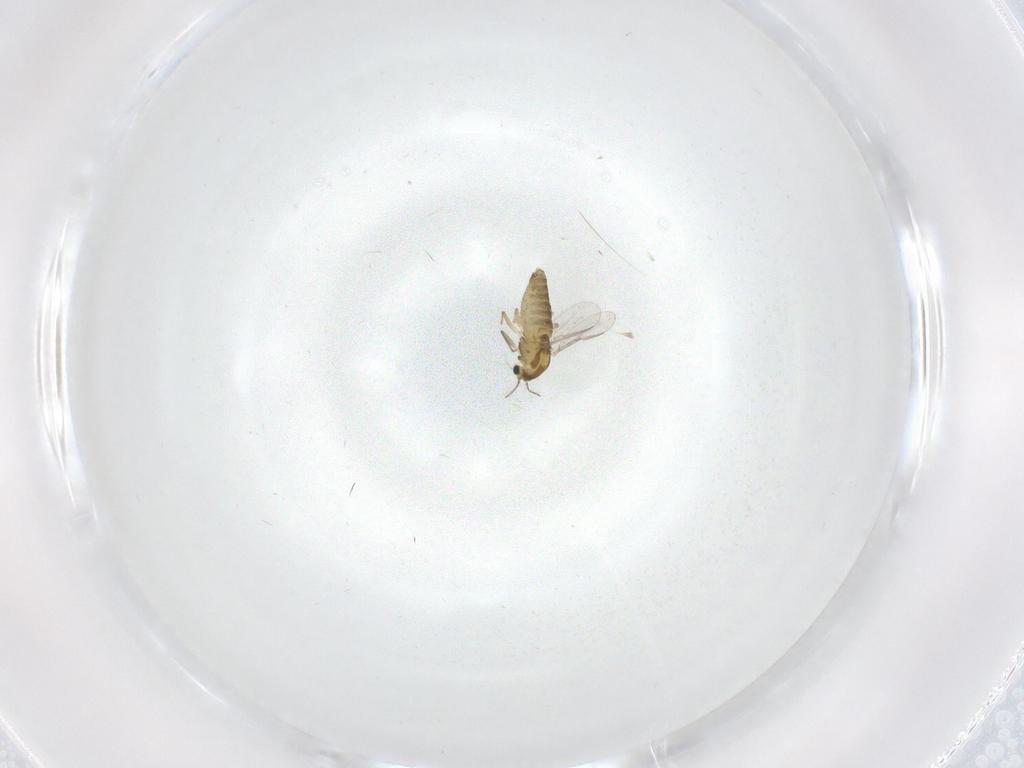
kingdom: Animalia
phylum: Arthropoda
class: Insecta
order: Diptera
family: Chironomidae
